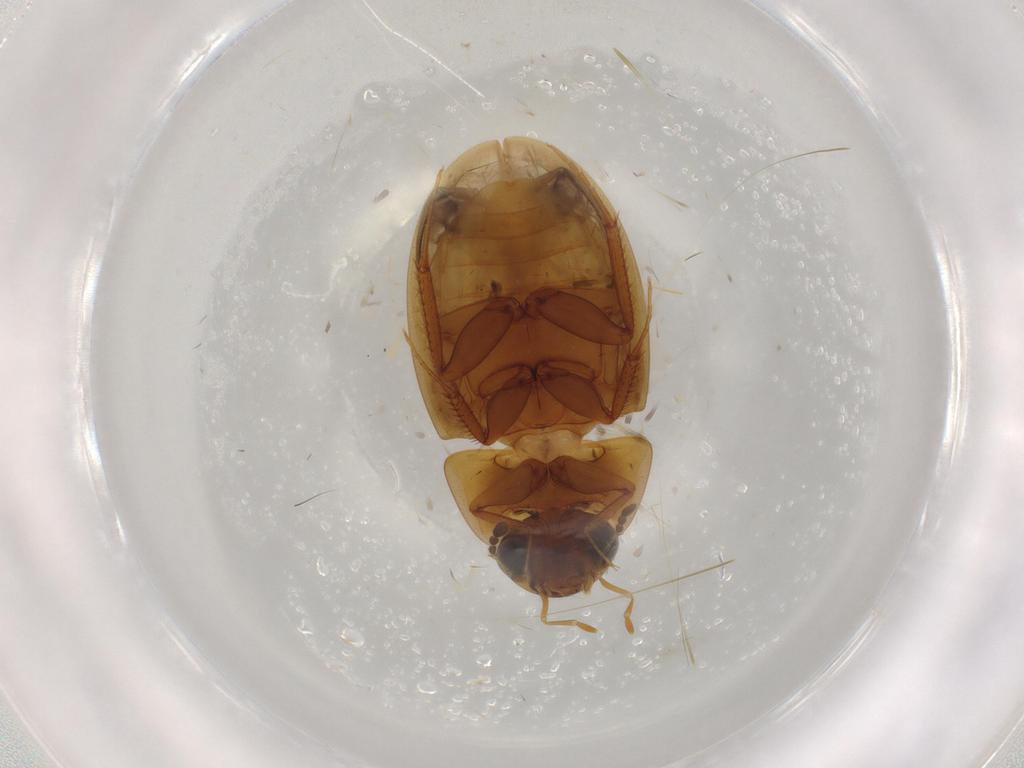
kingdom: Animalia
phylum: Arthropoda
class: Insecta
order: Coleoptera
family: Hydrophilidae
